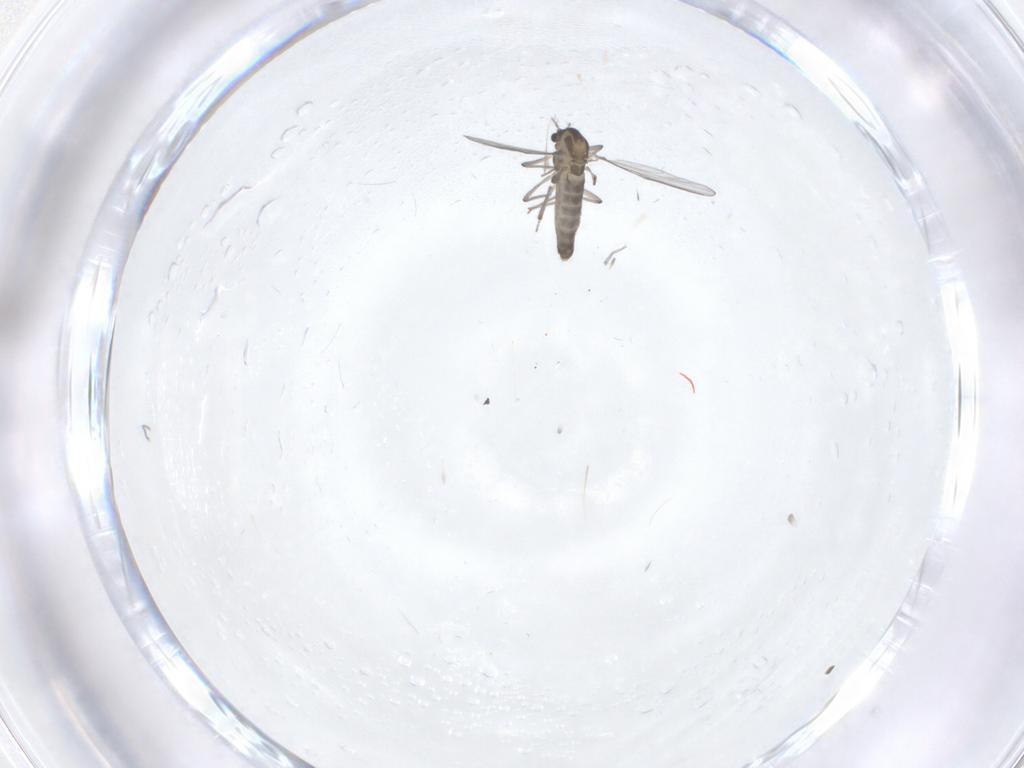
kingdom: Animalia
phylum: Arthropoda
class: Insecta
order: Diptera
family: Chironomidae
